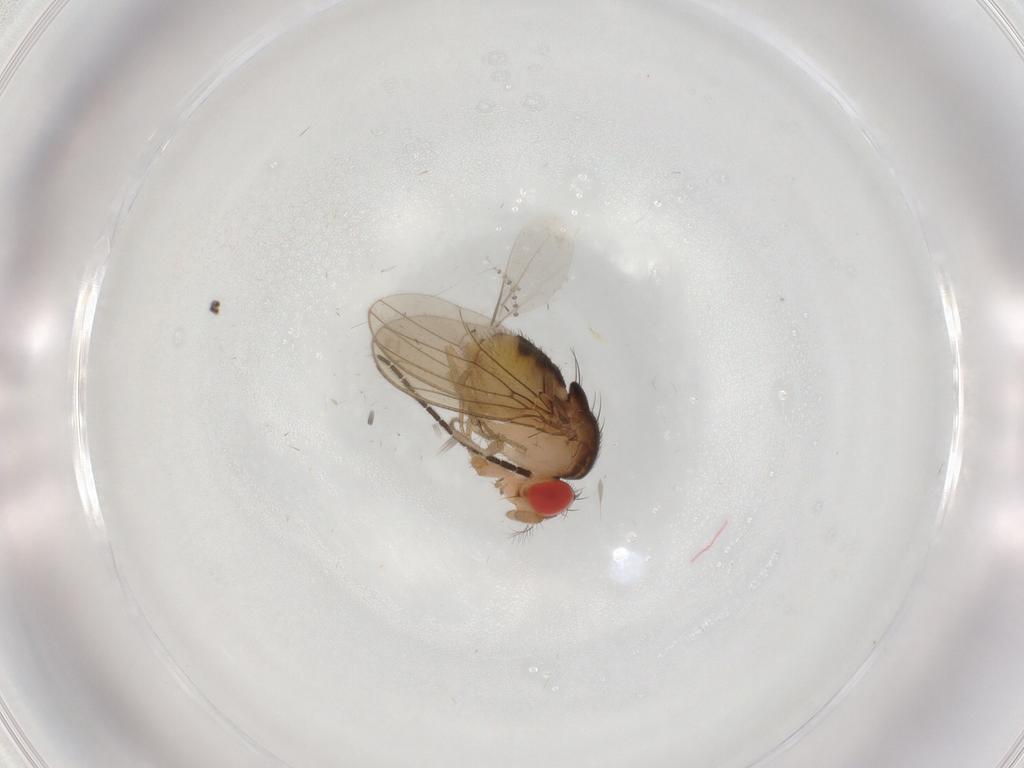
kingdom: Animalia
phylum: Arthropoda
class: Insecta
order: Diptera
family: Drosophilidae
